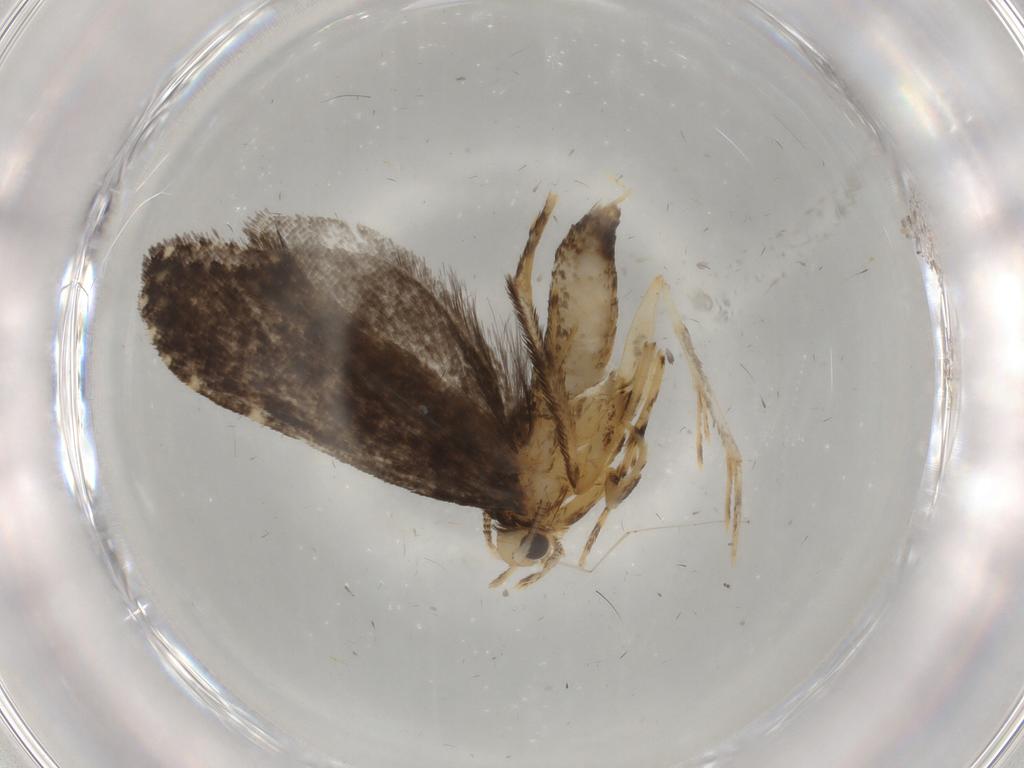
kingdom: Animalia
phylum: Arthropoda
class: Insecta
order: Lepidoptera
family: Tineidae
